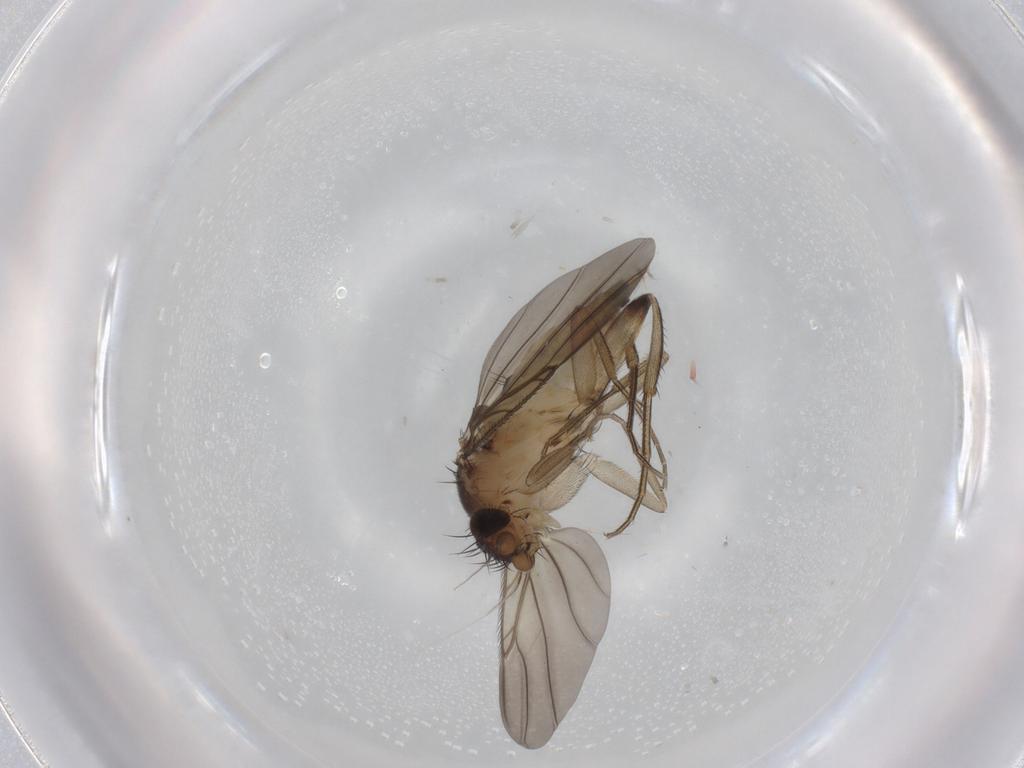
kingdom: Animalia
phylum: Arthropoda
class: Insecta
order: Diptera
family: Phoridae
